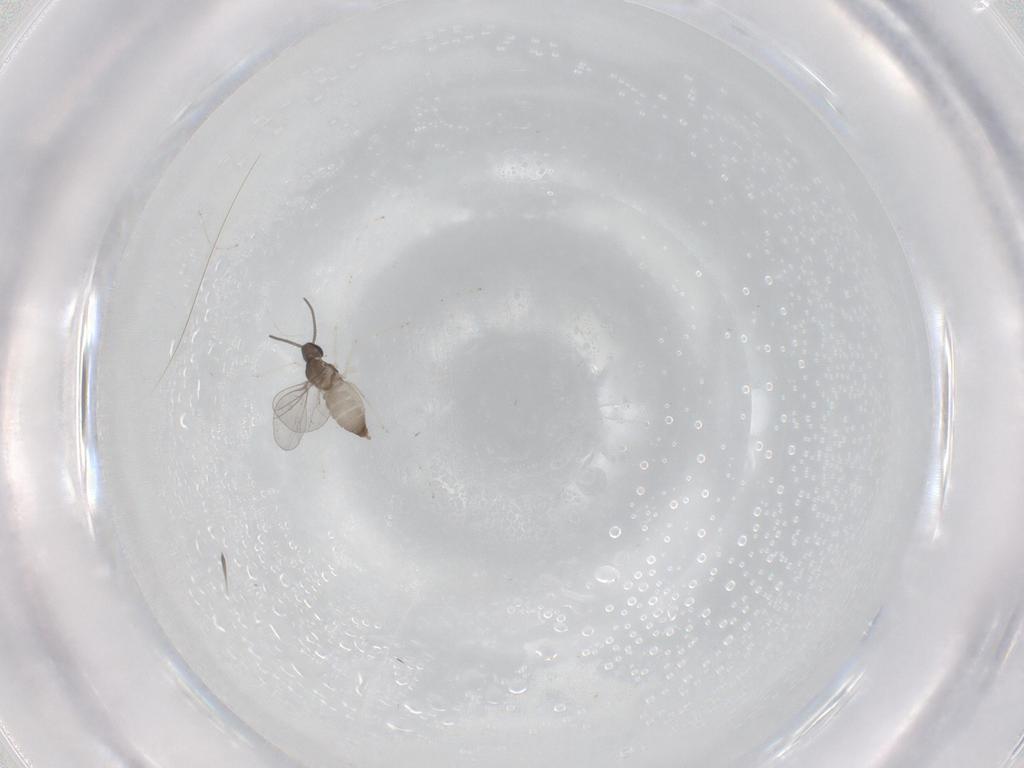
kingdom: Animalia
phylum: Arthropoda
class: Insecta
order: Diptera
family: Cecidomyiidae
